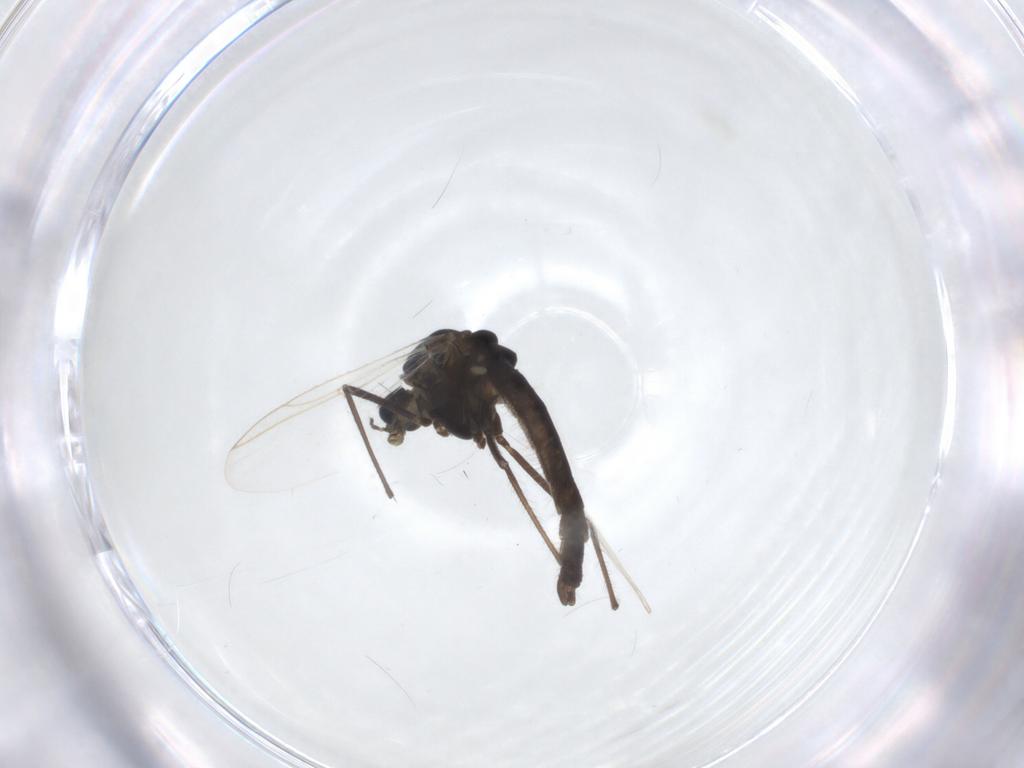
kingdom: Animalia
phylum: Arthropoda
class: Insecta
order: Diptera
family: Chironomidae
